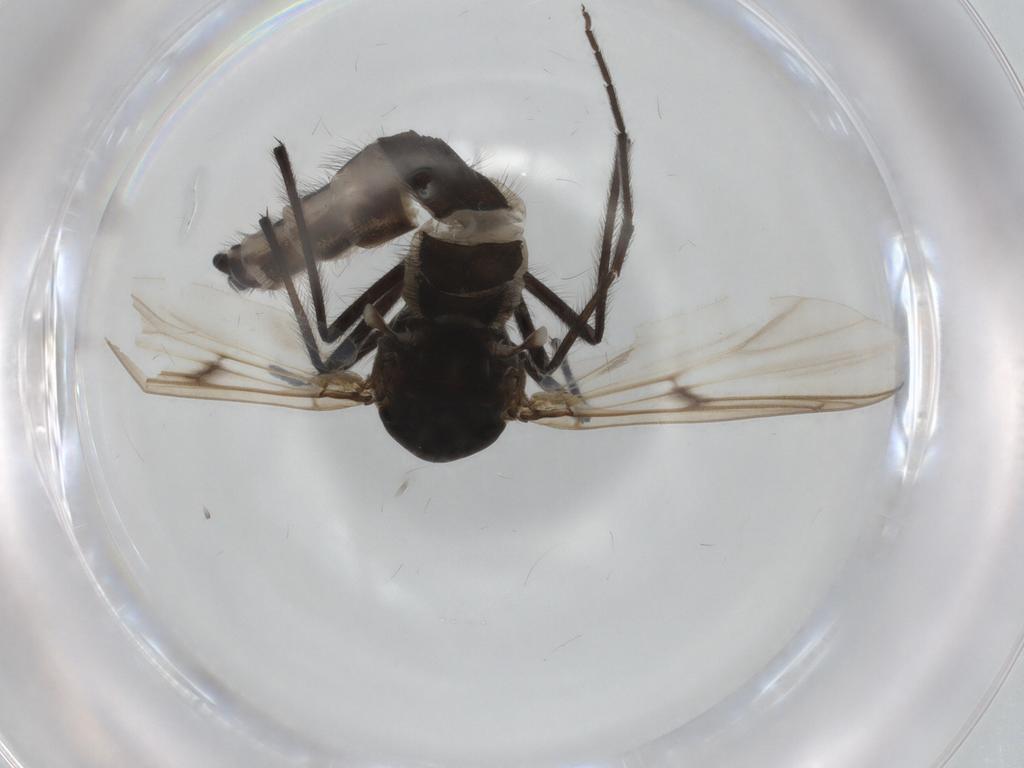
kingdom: Animalia
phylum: Arthropoda
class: Insecta
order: Diptera
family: Chironomidae
